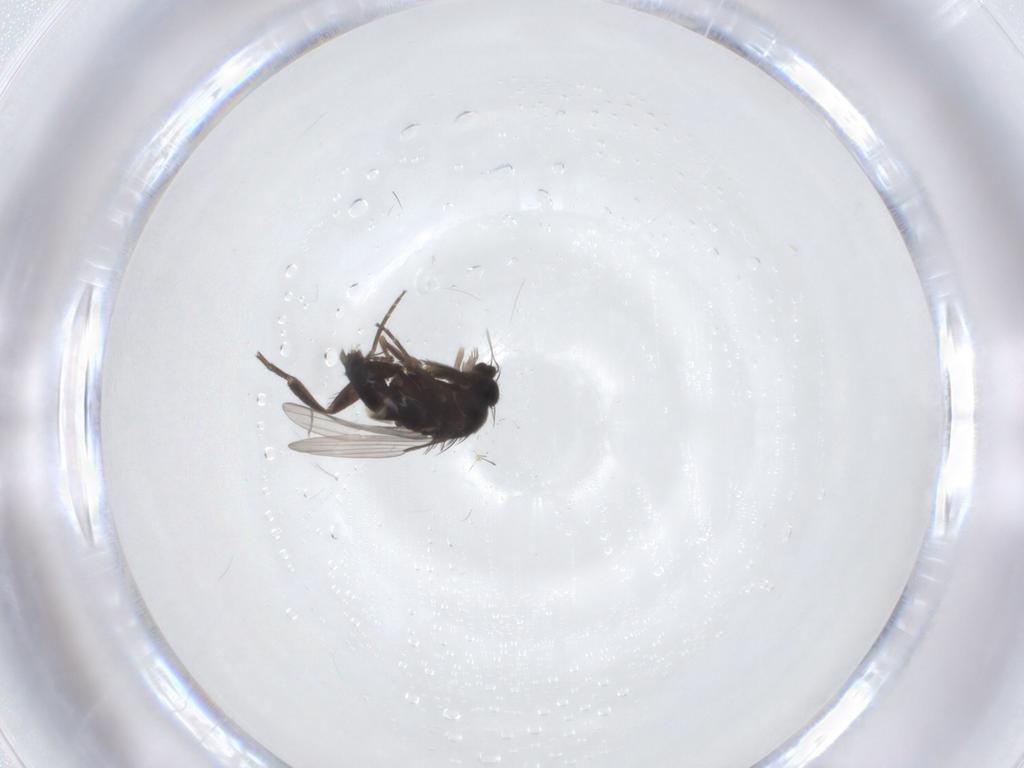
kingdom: Animalia
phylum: Arthropoda
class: Insecta
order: Diptera
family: Phoridae
